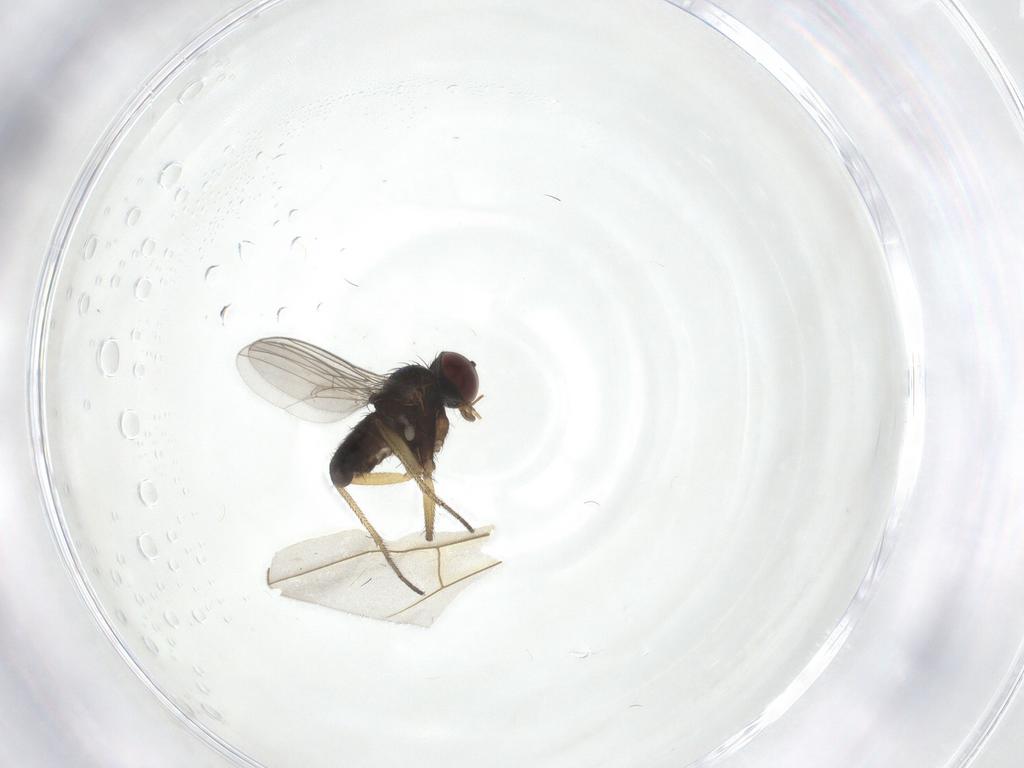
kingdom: Animalia
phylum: Arthropoda
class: Insecta
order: Diptera
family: Dolichopodidae
